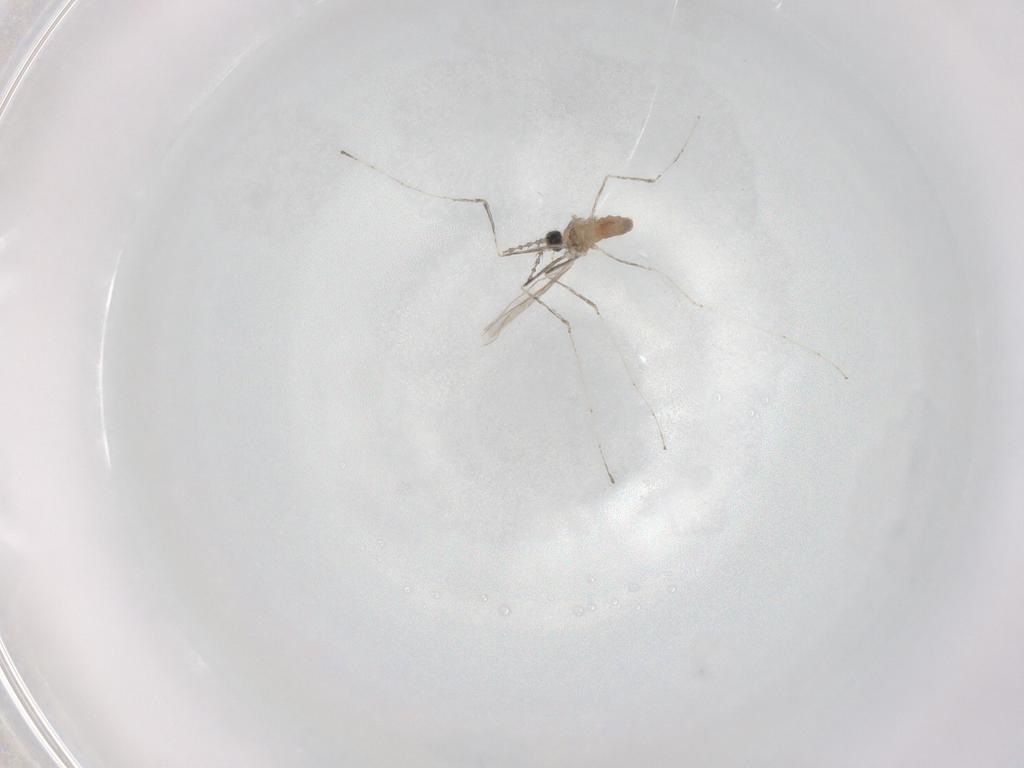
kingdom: Animalia
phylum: Arthropoda
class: Insecta
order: Diptera
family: Cecidomyiidae
